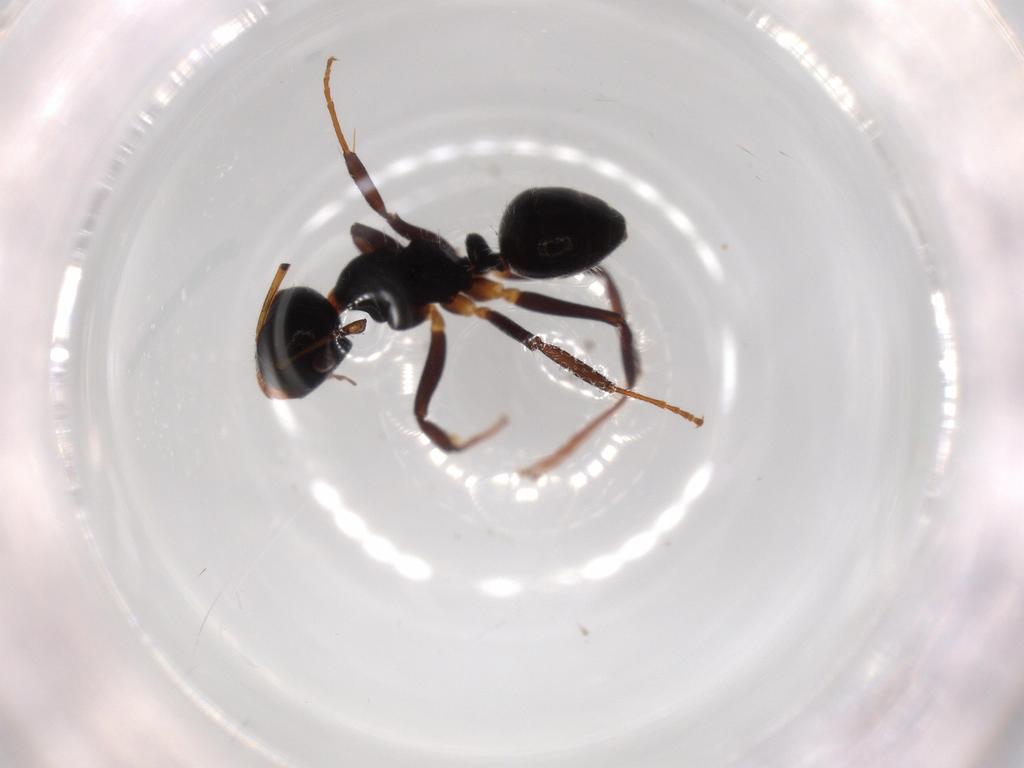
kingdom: Animalia
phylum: Arthropoda
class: Insecta
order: Hymenoptera
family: Formicidae
